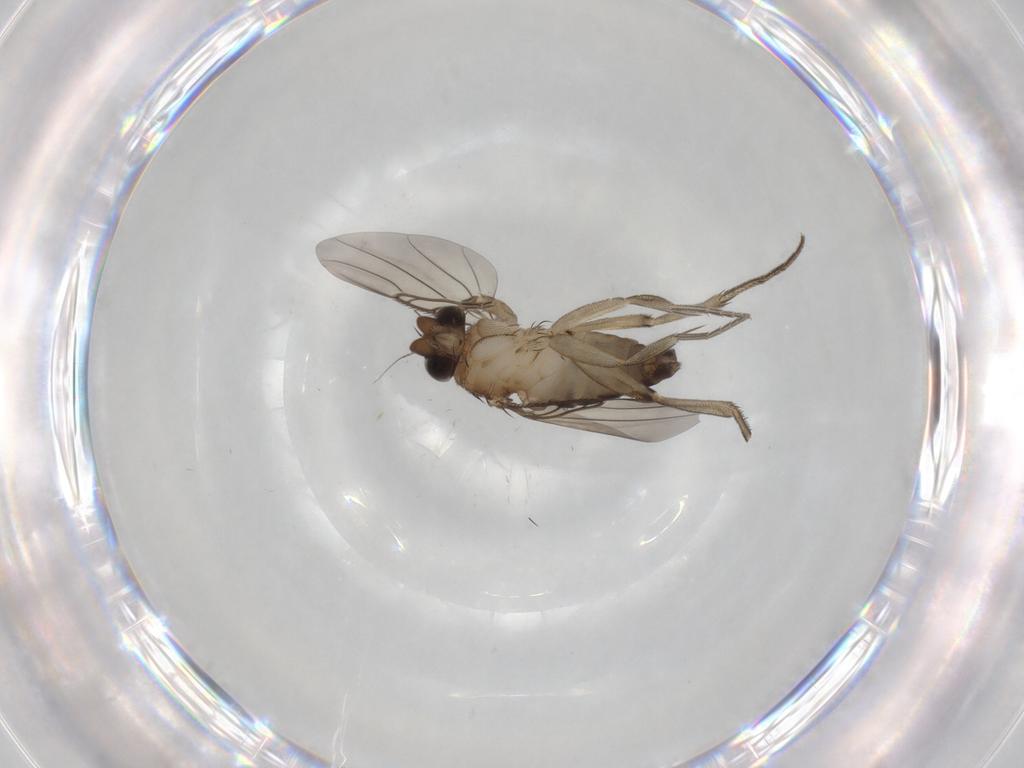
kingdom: Animalia
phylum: Arthropoda
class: Insecta
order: Diptera
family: Phoridae
